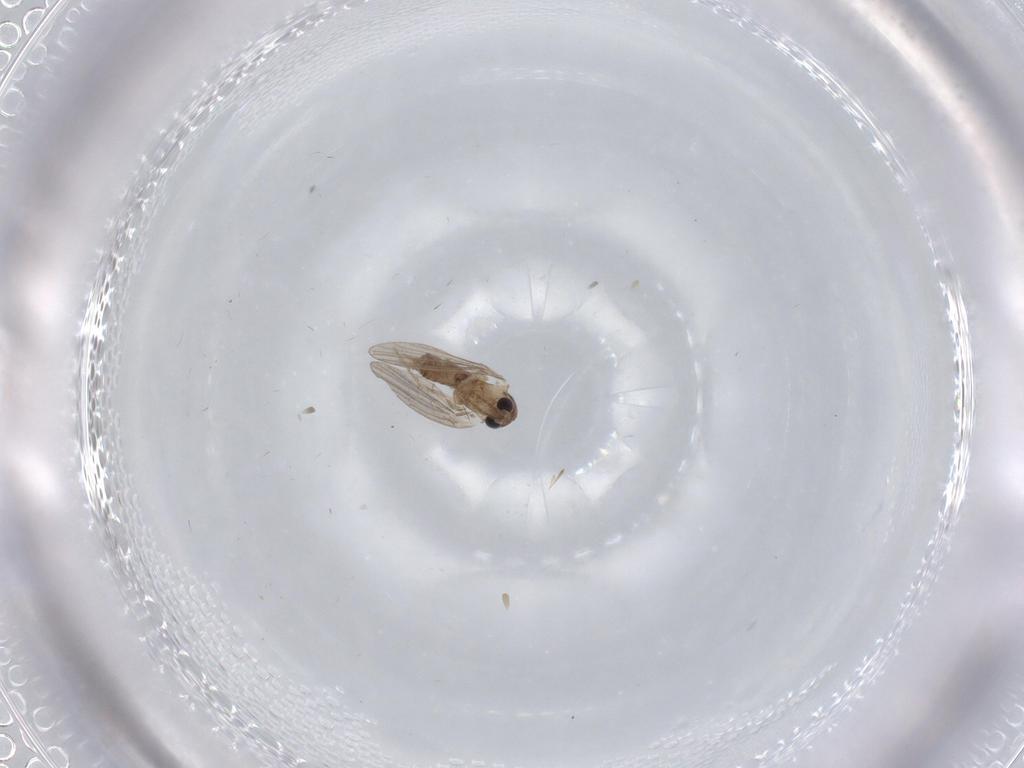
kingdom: Animalia
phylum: Arthropoda
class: Insecta
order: Diptera
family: Psychodidae
